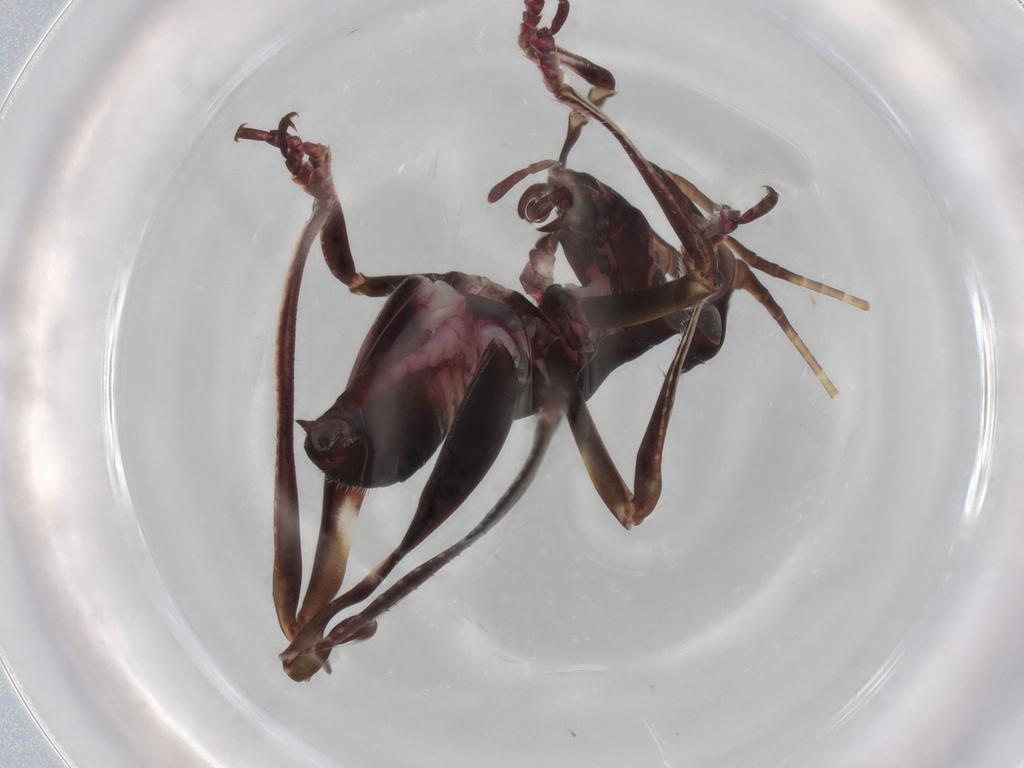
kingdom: Animalia
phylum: Arthropoda
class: Insecta
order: Orthoptera
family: Tettigoniidae
